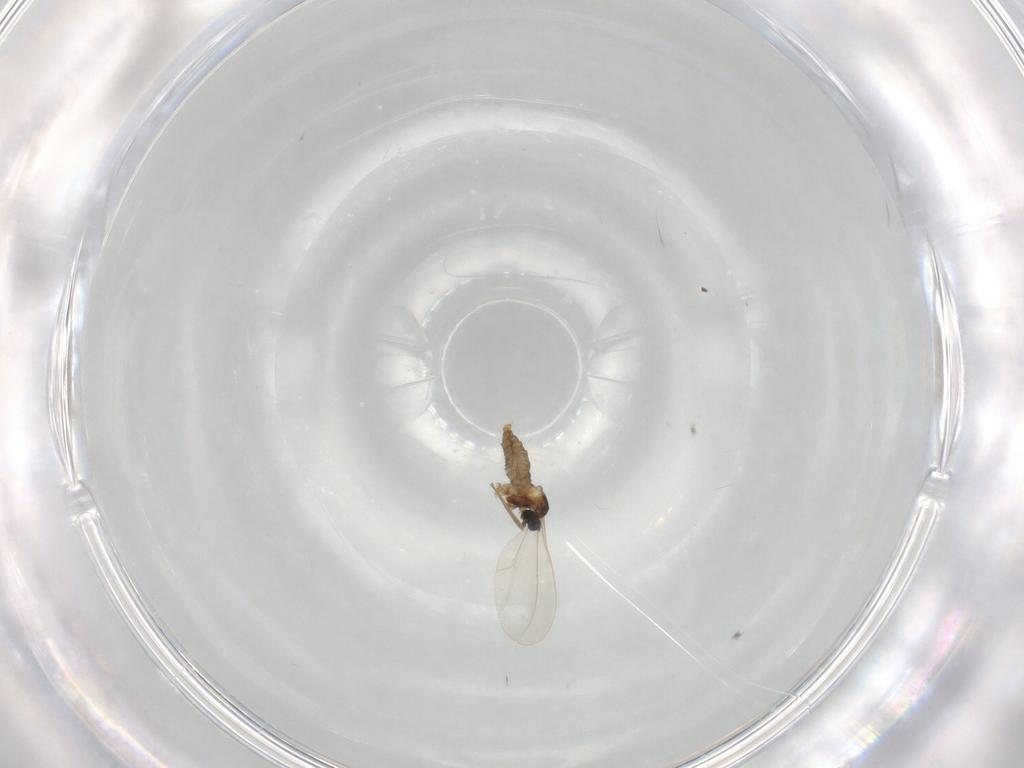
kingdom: Animalia
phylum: Arthropoda
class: Insecta
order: Diptera
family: Cecidomyiidae
